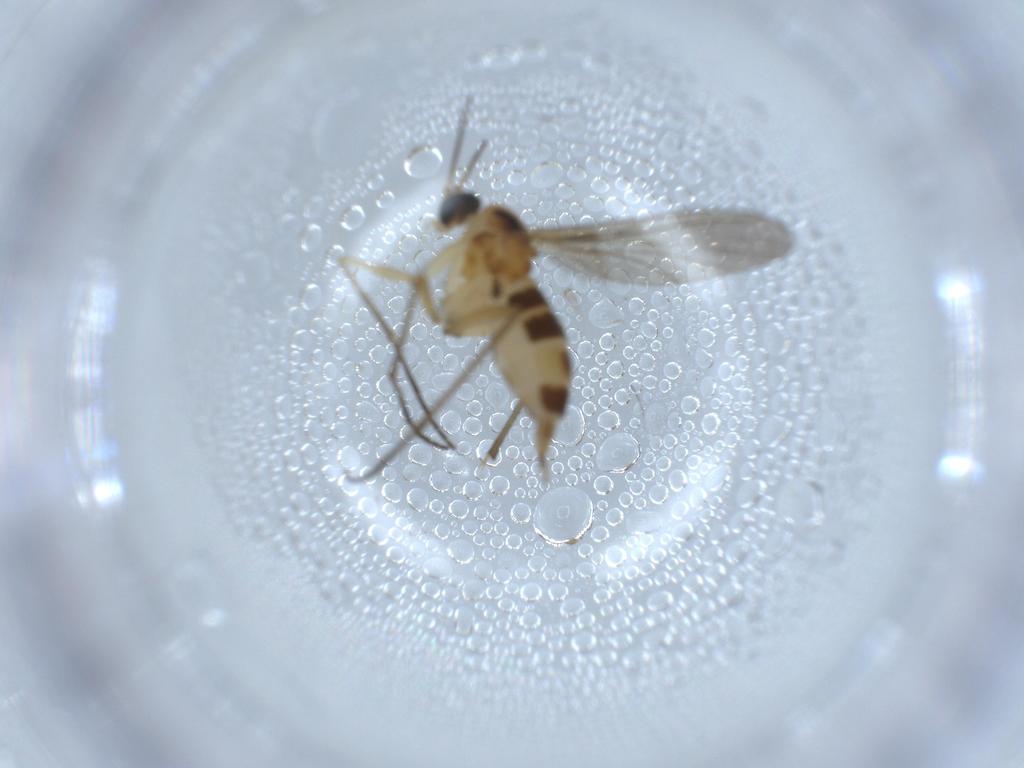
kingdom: Animalia
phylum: Arthropoda
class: Insecta
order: Diptera
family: Sciaridae
